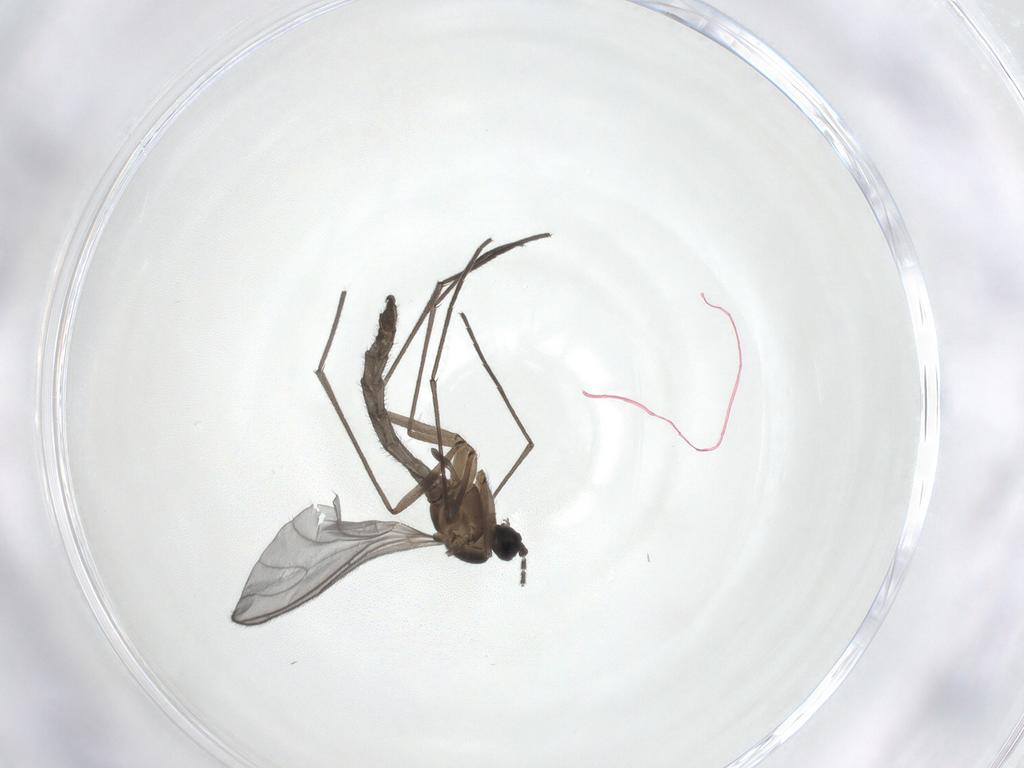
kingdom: Animalia
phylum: Arthropoda
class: Insecta
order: Diptera
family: Sciaridae
